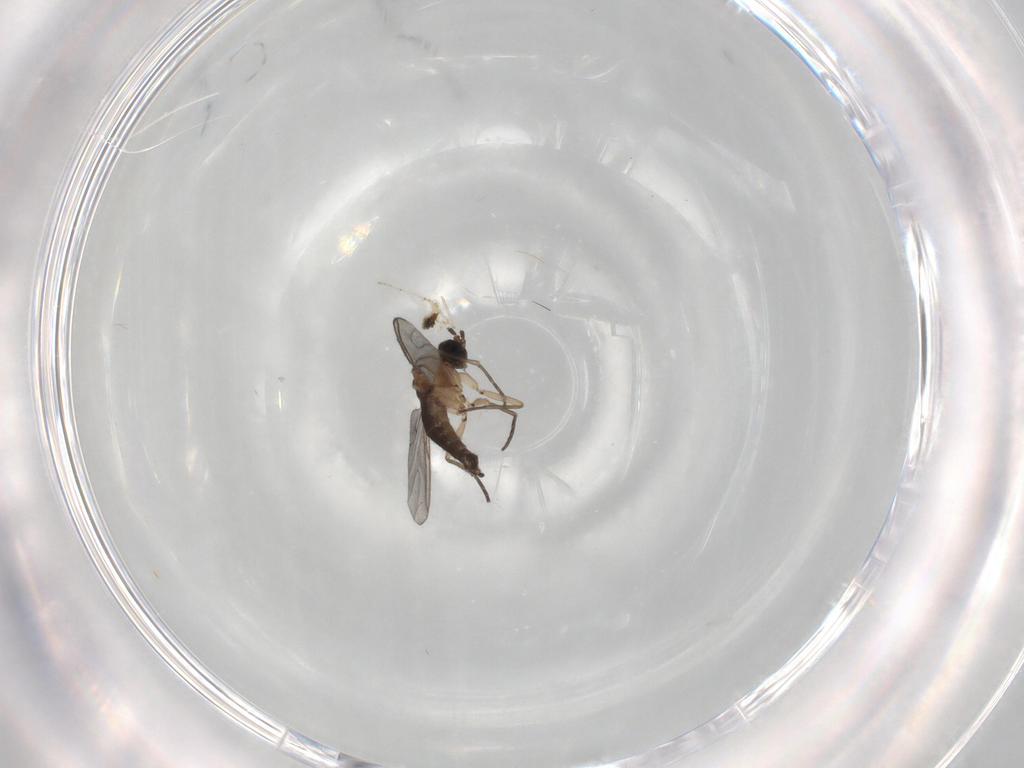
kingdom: Animalia
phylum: Arthropoda
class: Insecta
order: Diptera
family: Sciaridae
